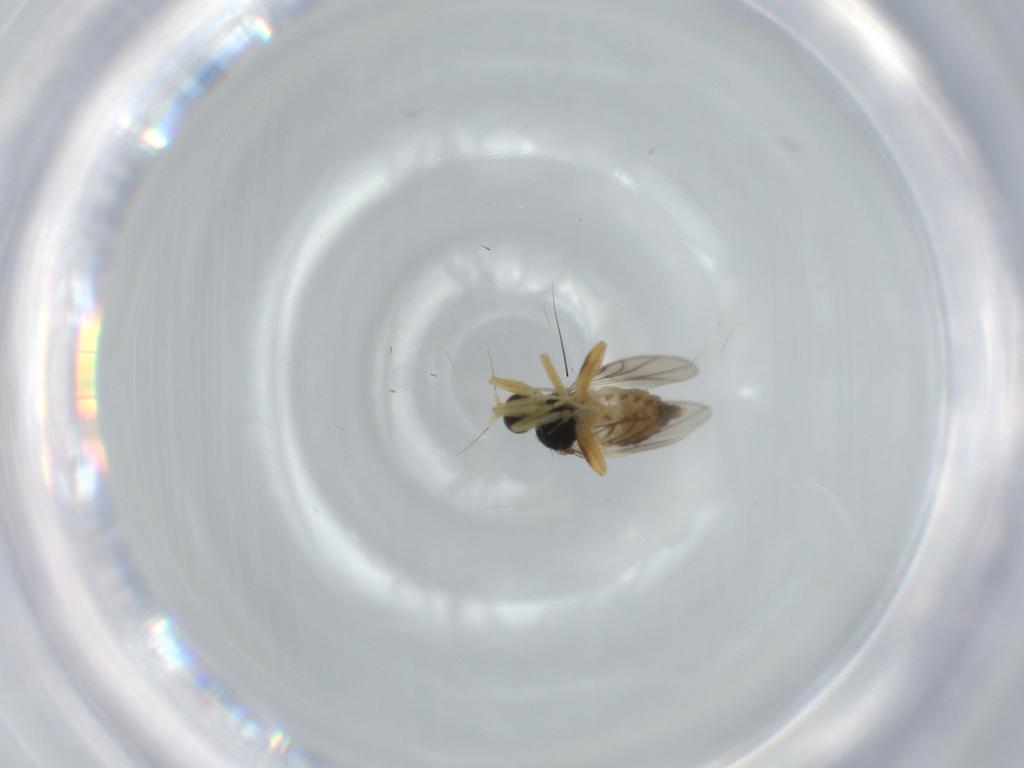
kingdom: Animalia
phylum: Arthropoda
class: Insecta
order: Diptera
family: Hybotidae
